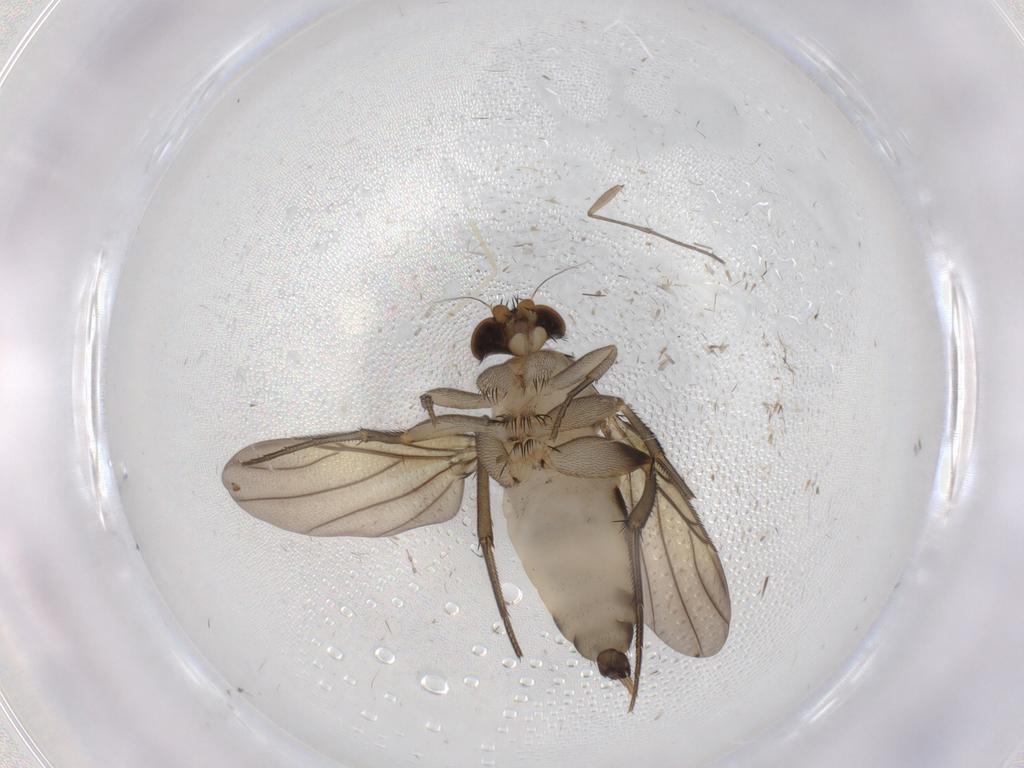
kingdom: Animalia
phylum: Arthropoda
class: Insecta
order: Diptera
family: Phoridae
